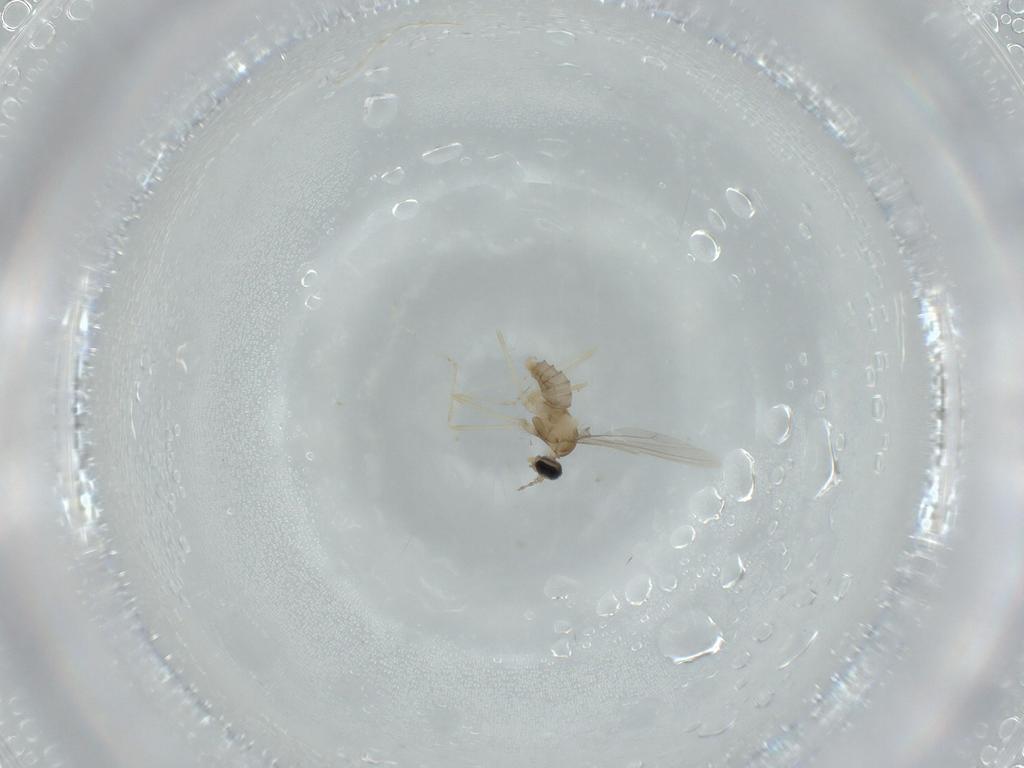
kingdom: Animalia
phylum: Arthropoda
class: Insecta
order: Diptera
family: Cecidomyiidae
